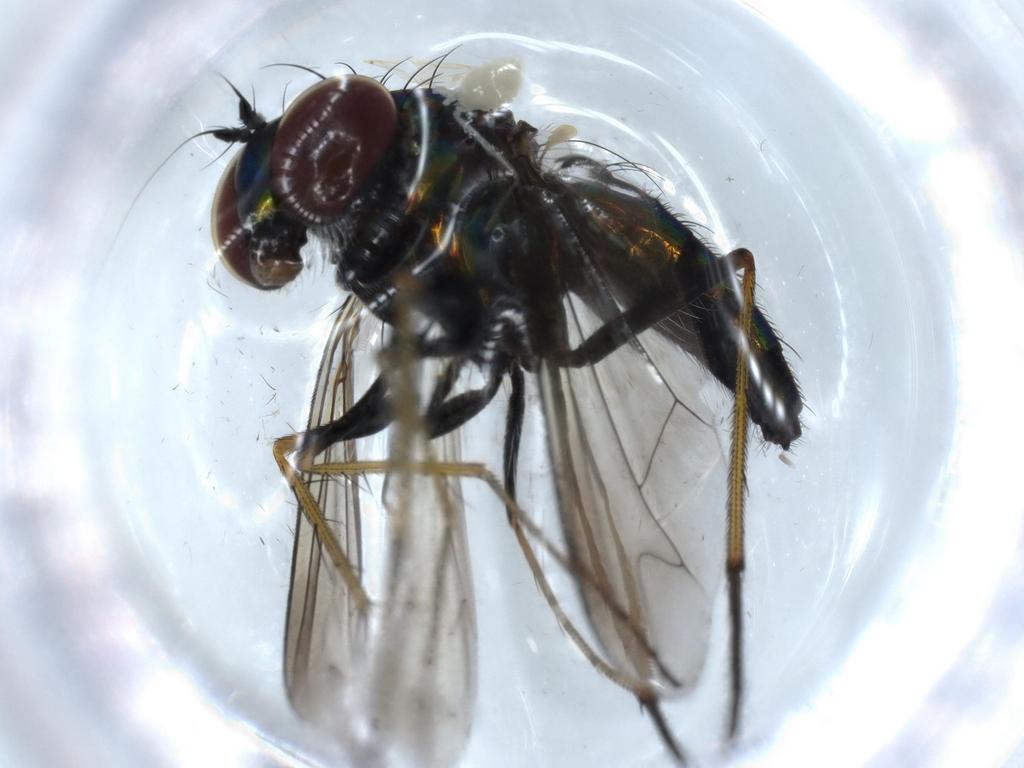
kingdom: Animalia
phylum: Arthropoda
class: Insecta
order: Diptera
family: Dolichopodidae
